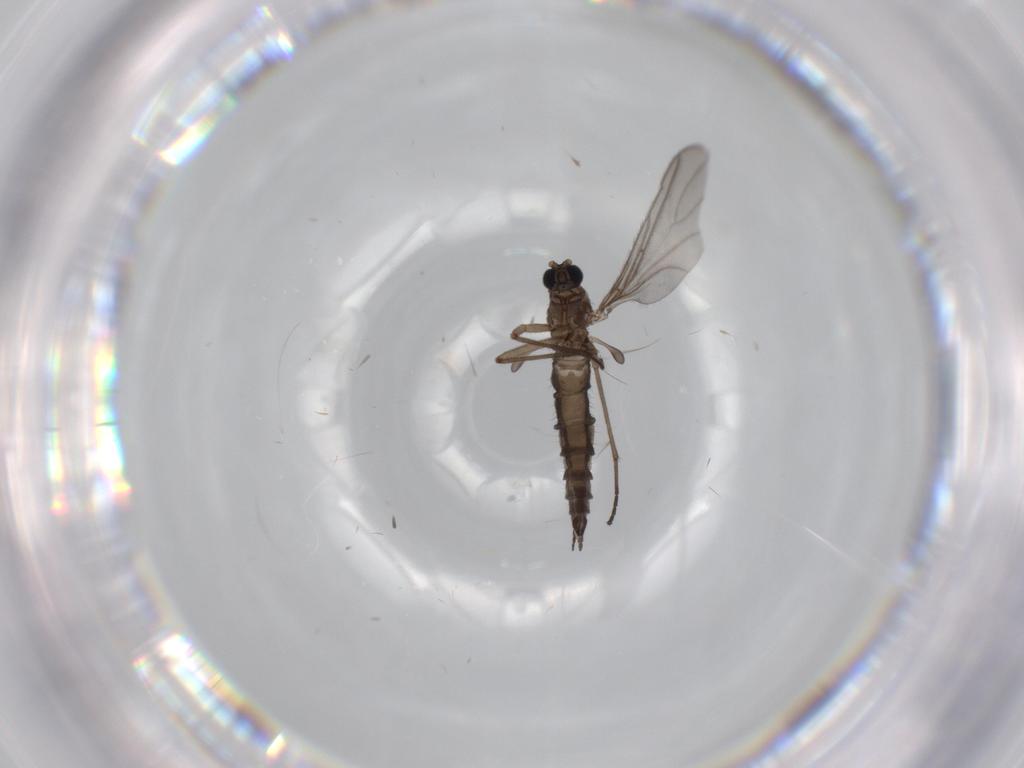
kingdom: Animalia
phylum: Arthropoda
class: Insecta
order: Diptera
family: Sciaridae
